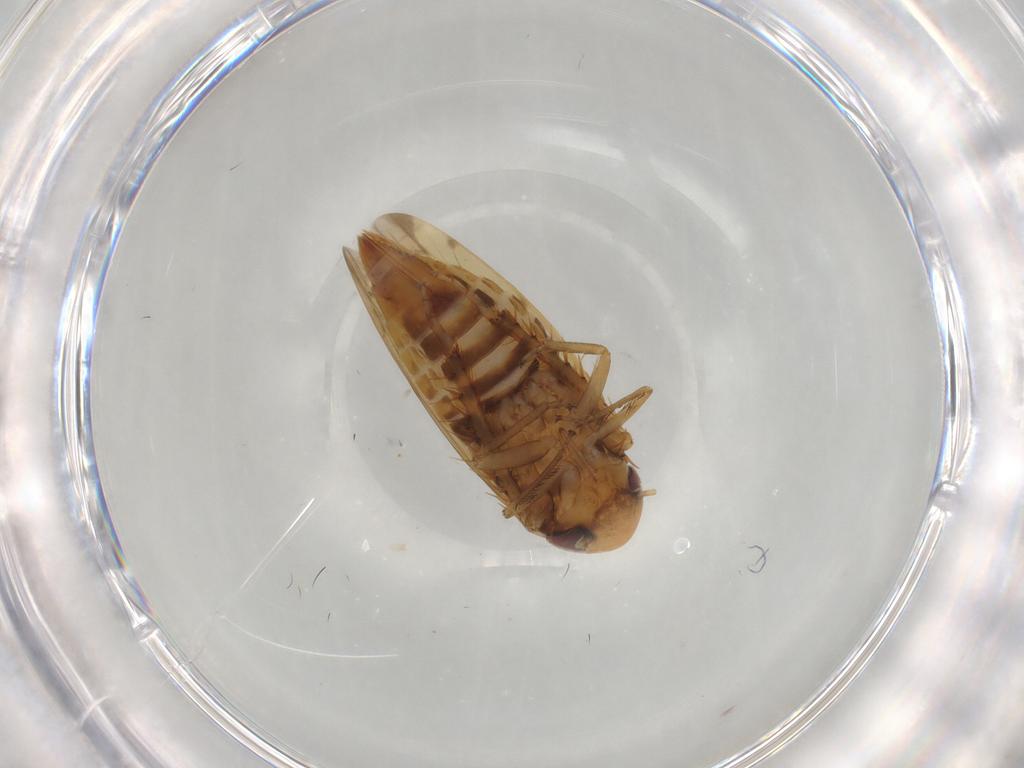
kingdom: Animalia
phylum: Arthropoda
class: Insecta
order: Hemiptera
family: Cicadellidae
